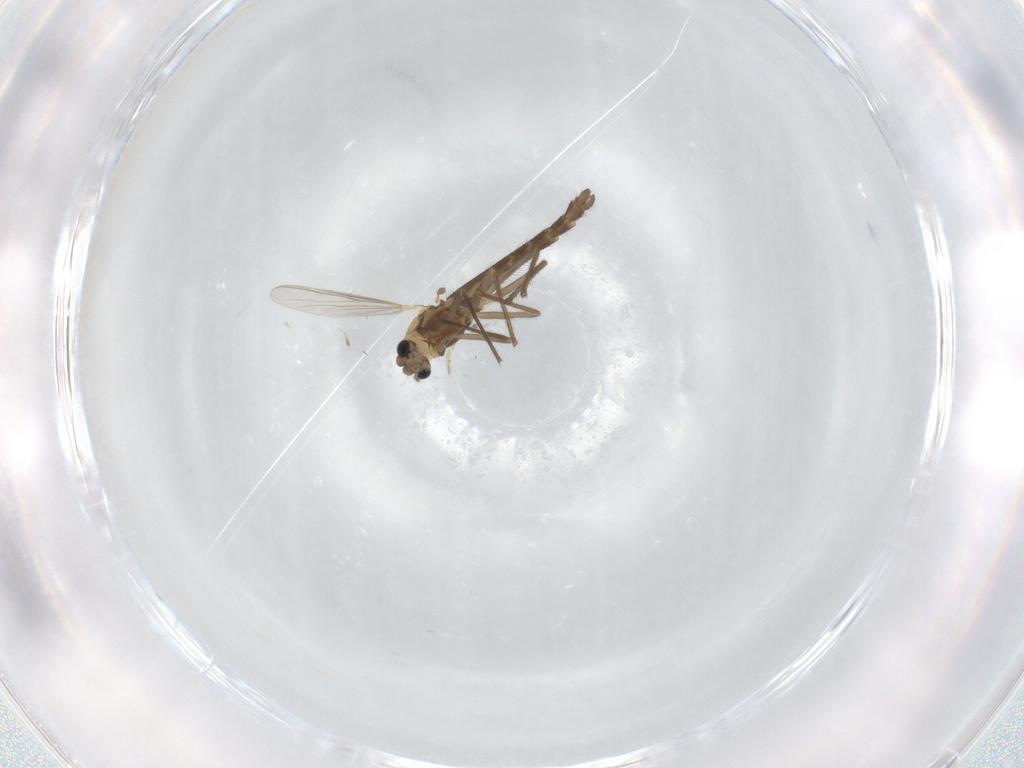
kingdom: Animalia
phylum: Arthropoda
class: Insecta
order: Diptera
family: Chironomidae
